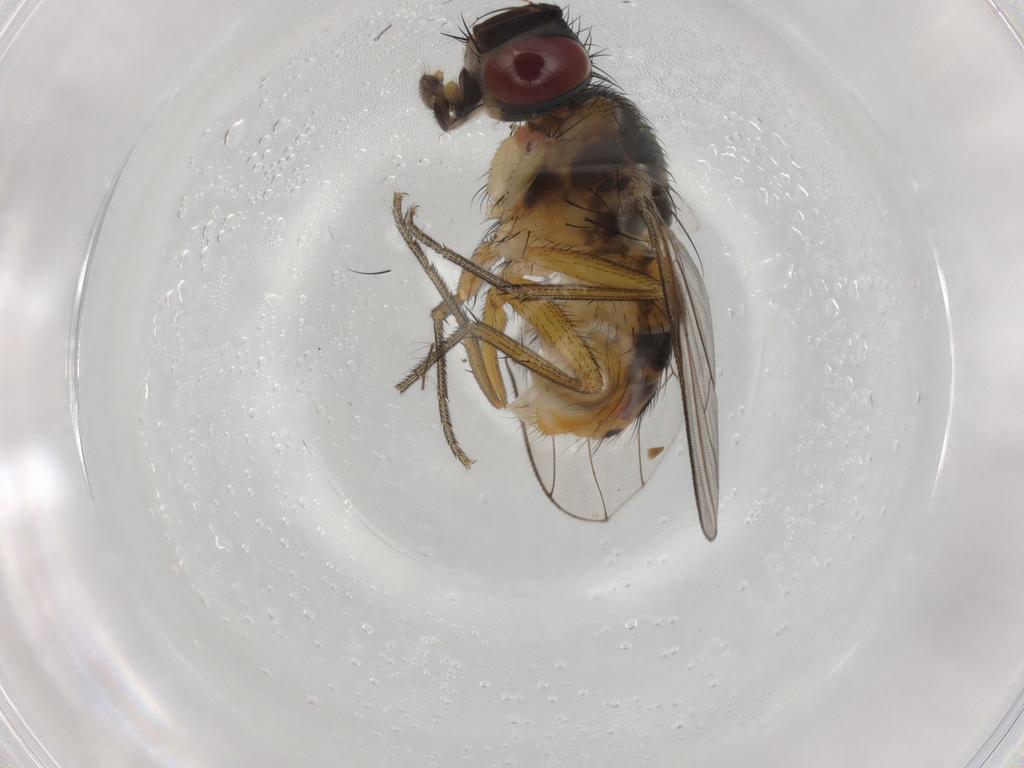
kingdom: Animalia
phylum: Arthropoda
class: Insecta
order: Diptera
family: Muscidae
